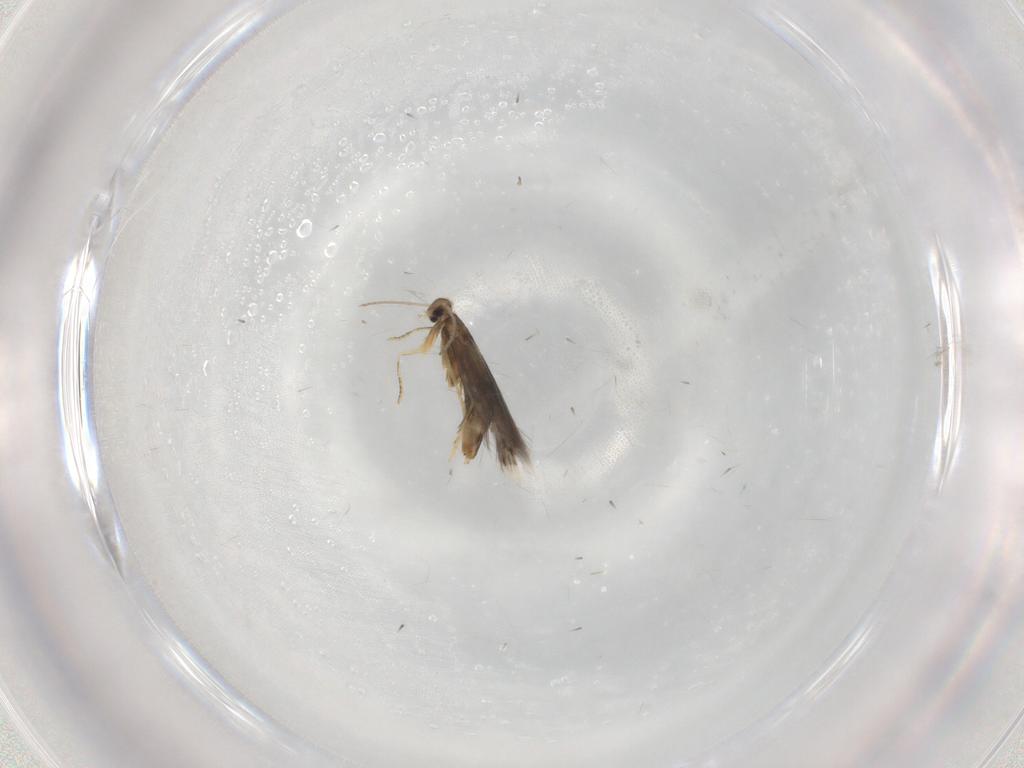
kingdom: Animalia
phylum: Arthropoda
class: Insecta
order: Lepidoptera
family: Heliozelidae
